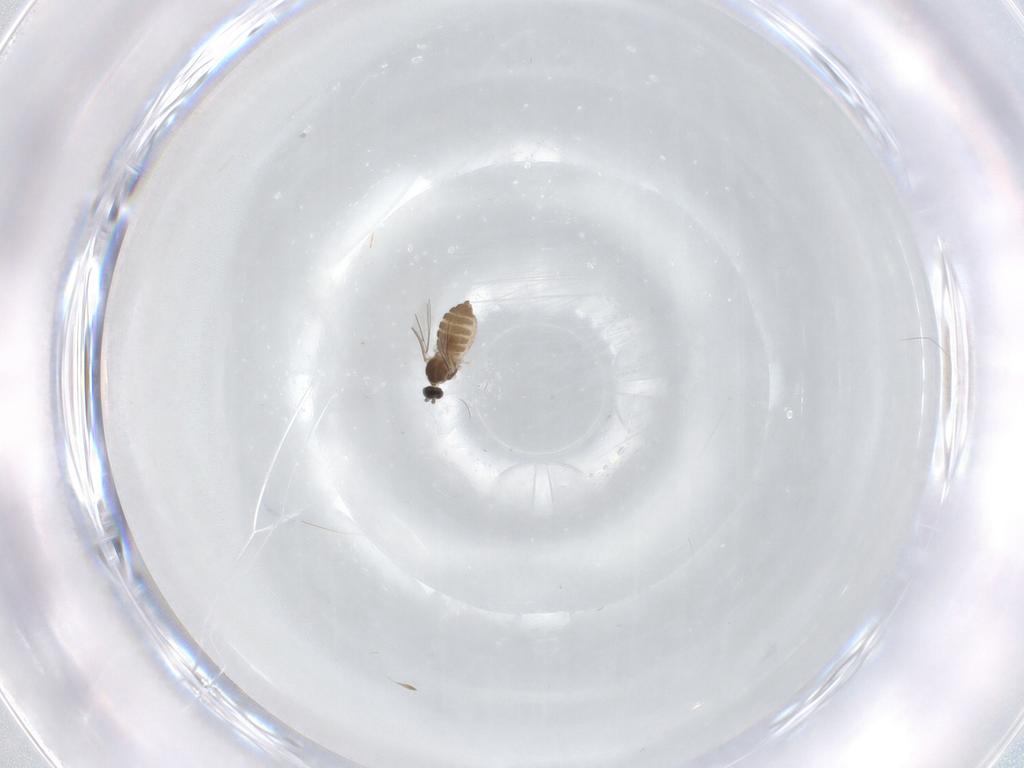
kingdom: Animalia
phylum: Arthropoda
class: Insecta
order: Diptera
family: Cecidomyiidae
